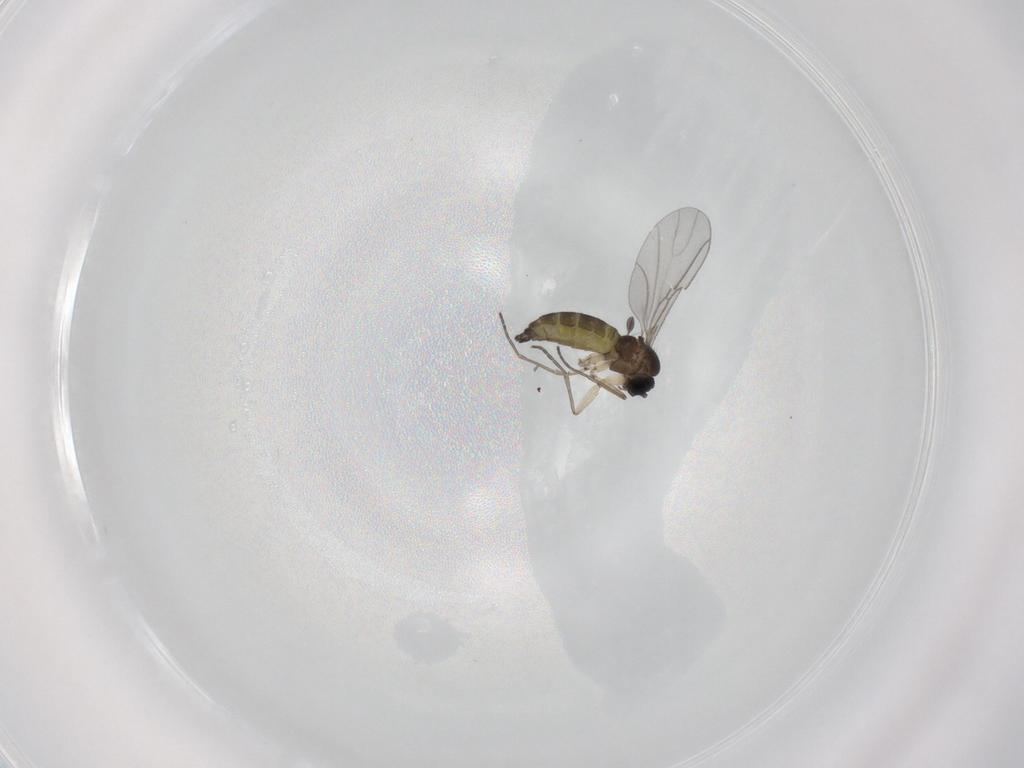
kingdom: Animalia
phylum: Arthropoda
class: Insecta
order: Diptera
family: Sciaridae
